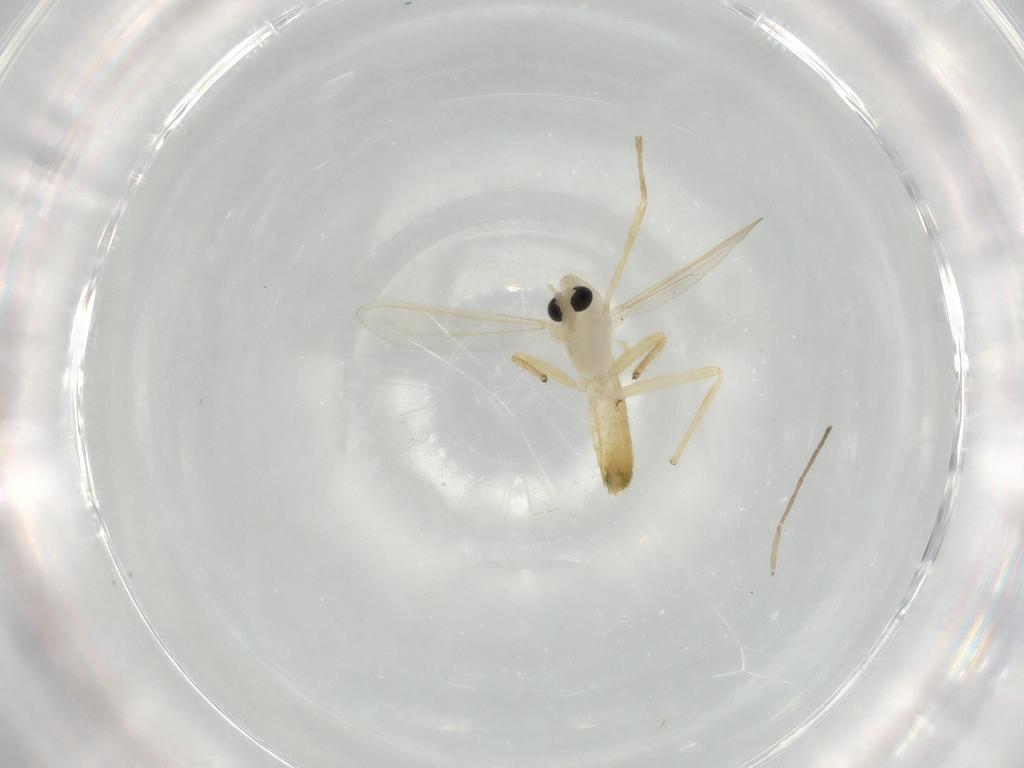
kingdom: Animalia
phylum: Arthropoda
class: Insecta
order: Diptera
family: Chironomidae
